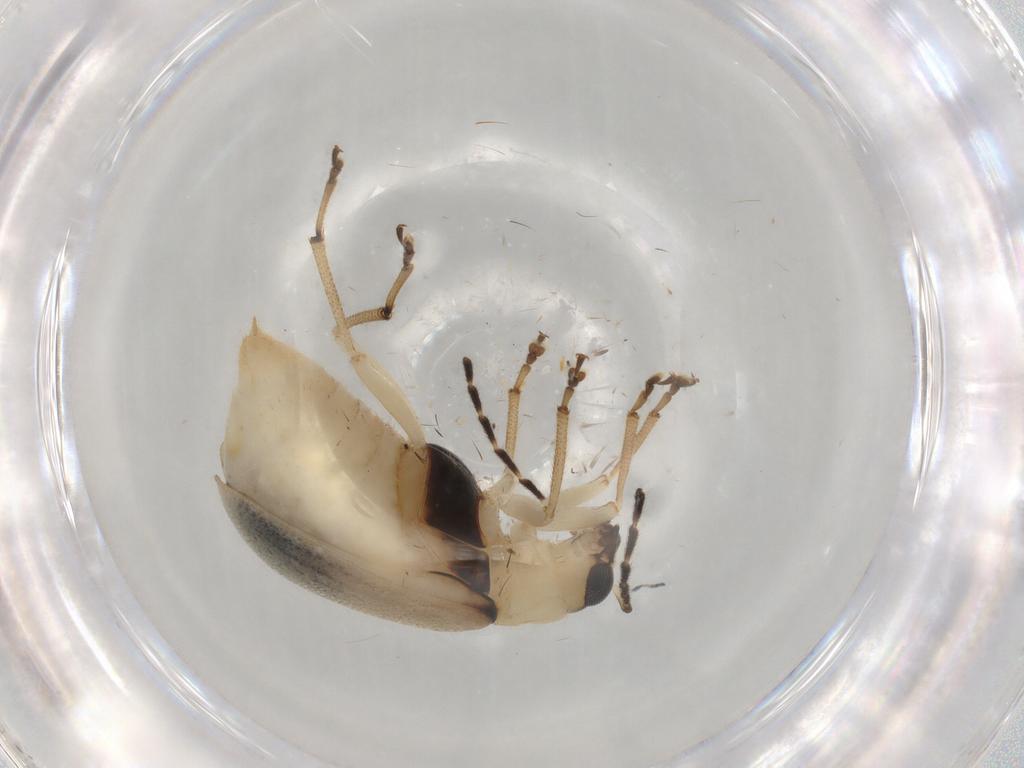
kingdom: Animalia
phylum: Arthropoda
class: Insecta
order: Coleoptera
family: Chrysomelidae
